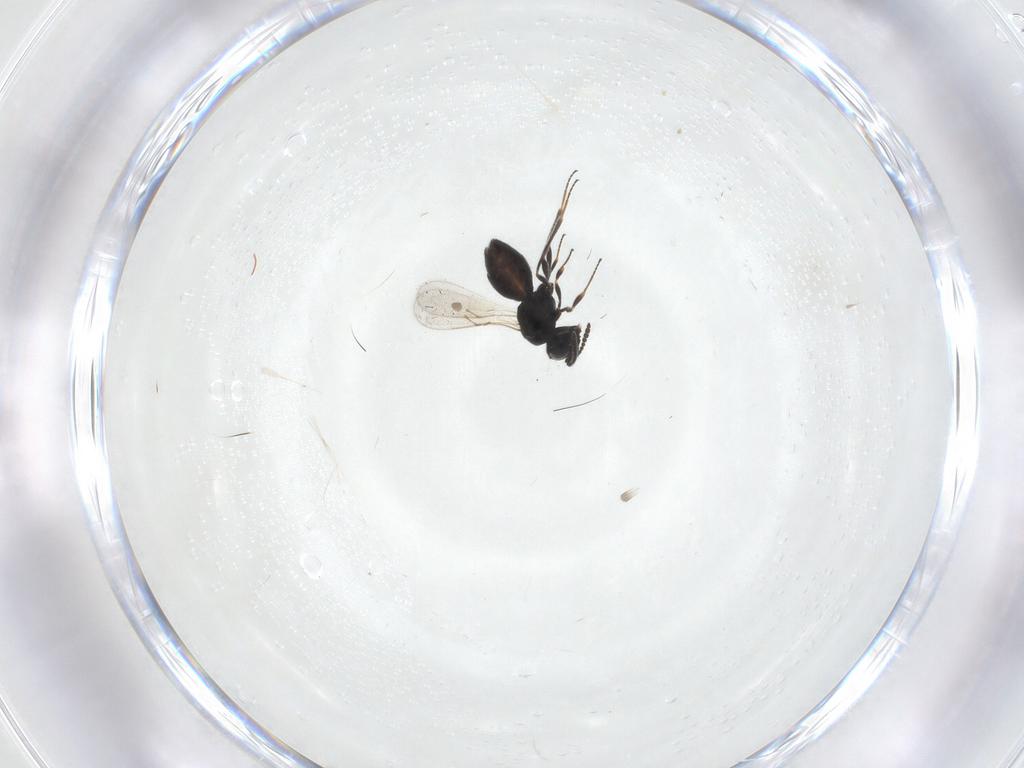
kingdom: Animalia
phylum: Arthropoda
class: Insecta
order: Hymenoptera
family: Scelionidae
